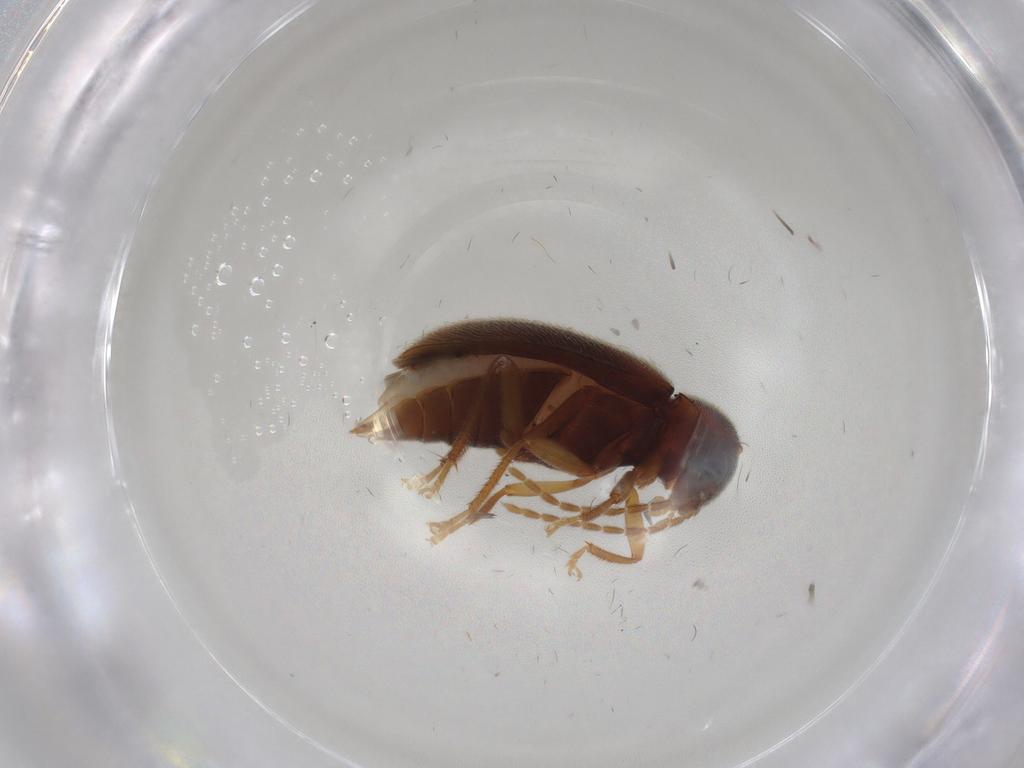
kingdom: Animalia
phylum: Arthropoda
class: Insecta
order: Coleoptera
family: Ptilodactylidae
